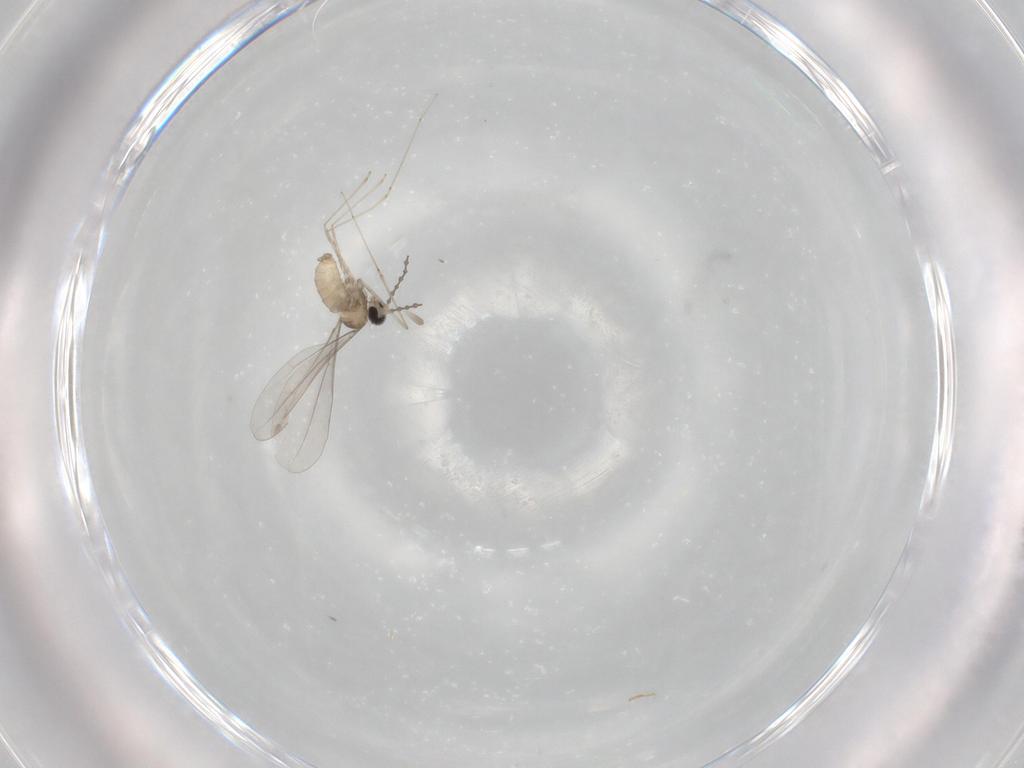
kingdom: Animalia
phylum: Arthropoda
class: Insecta
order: Diptera
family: Cecidomyiidae
